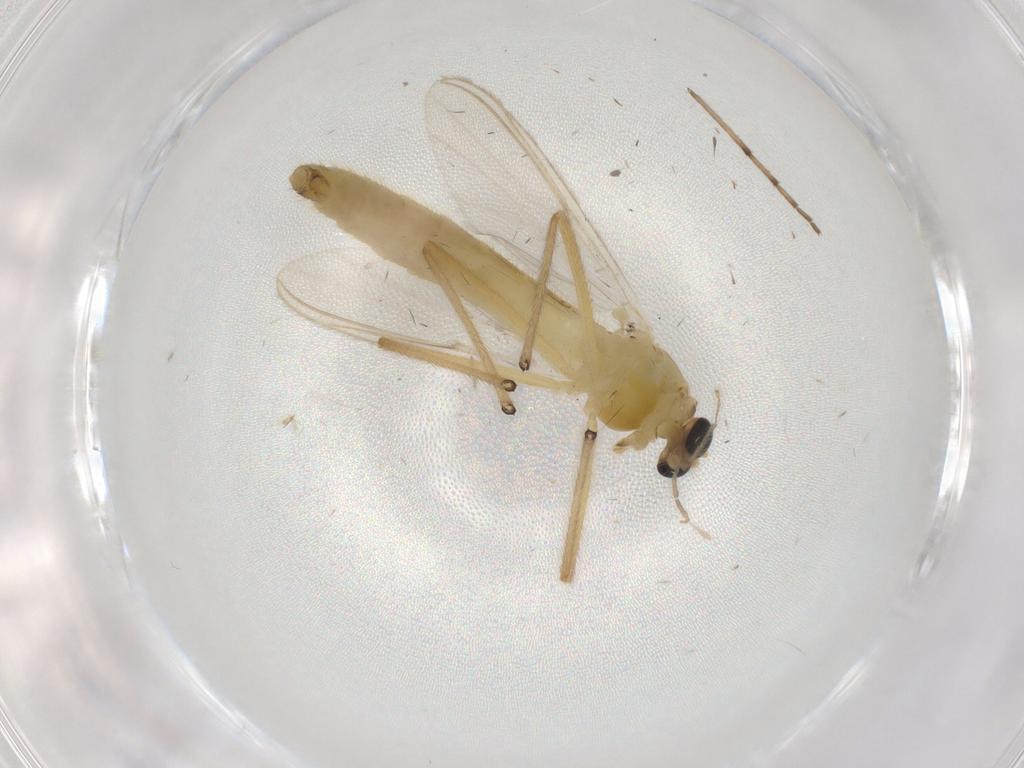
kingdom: Animalia
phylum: Arthropoda
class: Insecta
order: Diptera
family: Chironomidae
